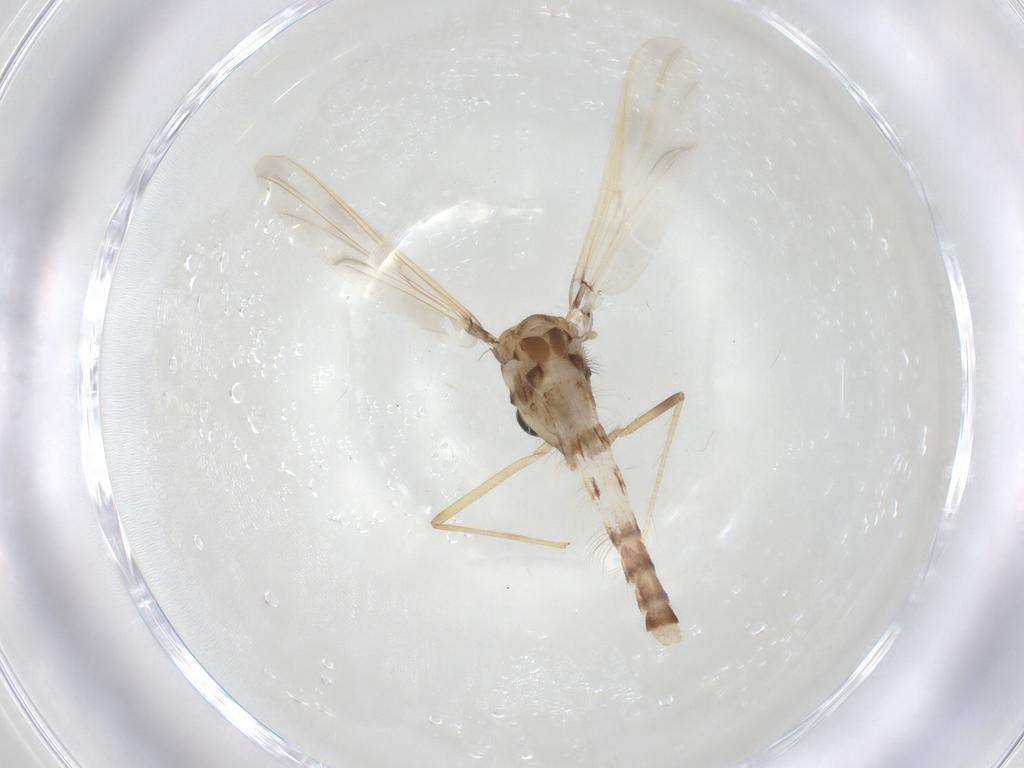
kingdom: Animalia
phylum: Arthropoda
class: Insecta
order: Diptera
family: Chironomidae
